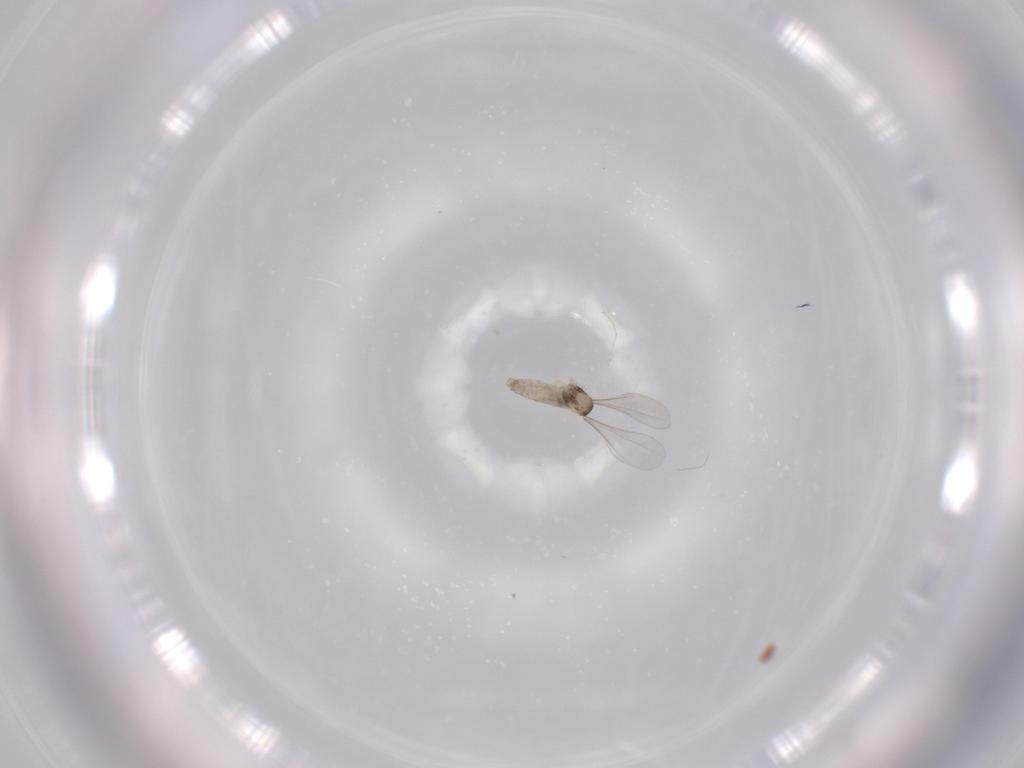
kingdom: Animalia
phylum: Arthropoda
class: Insecta
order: Diptera
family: Cecidomyiidae
